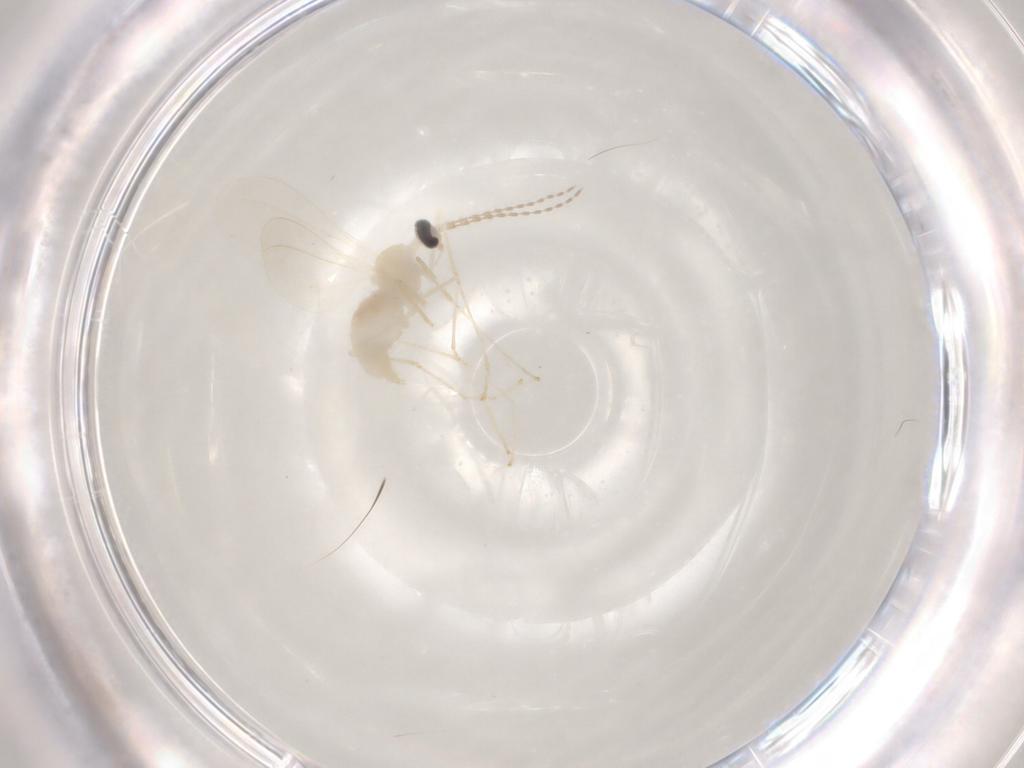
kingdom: Animalia
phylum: Arthropoda
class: Insecta
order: Diptera
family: Cecidomyiidae
